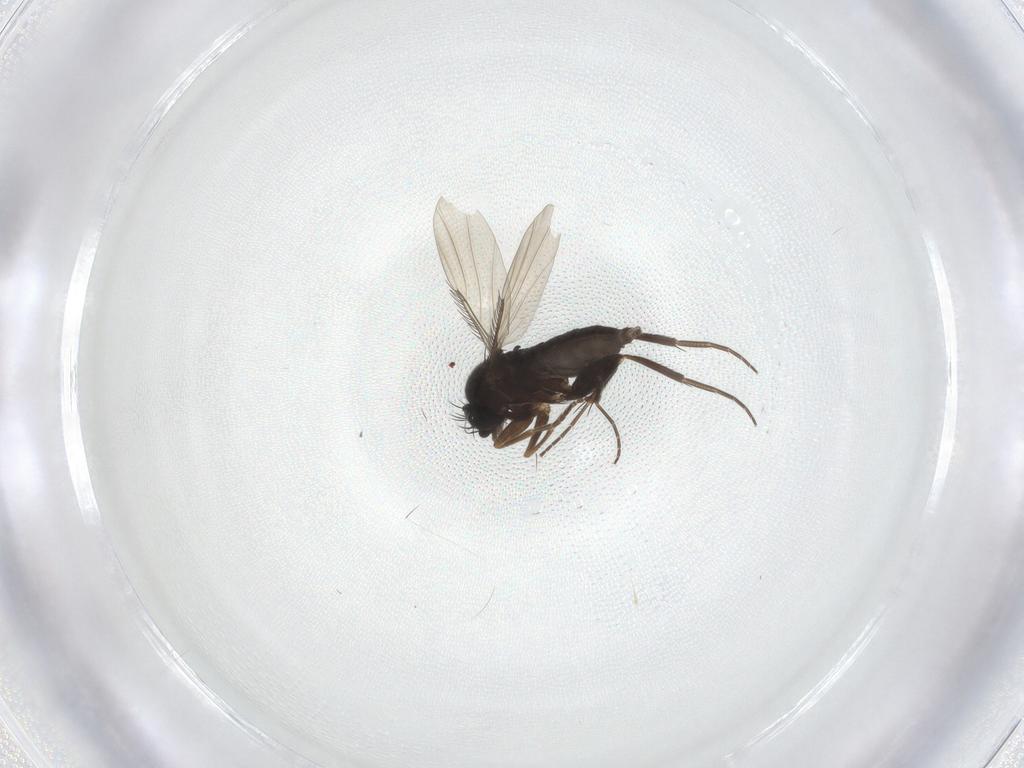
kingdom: Animalia
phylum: Arthropoda
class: Insecta
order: Diptera
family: Phoridae
